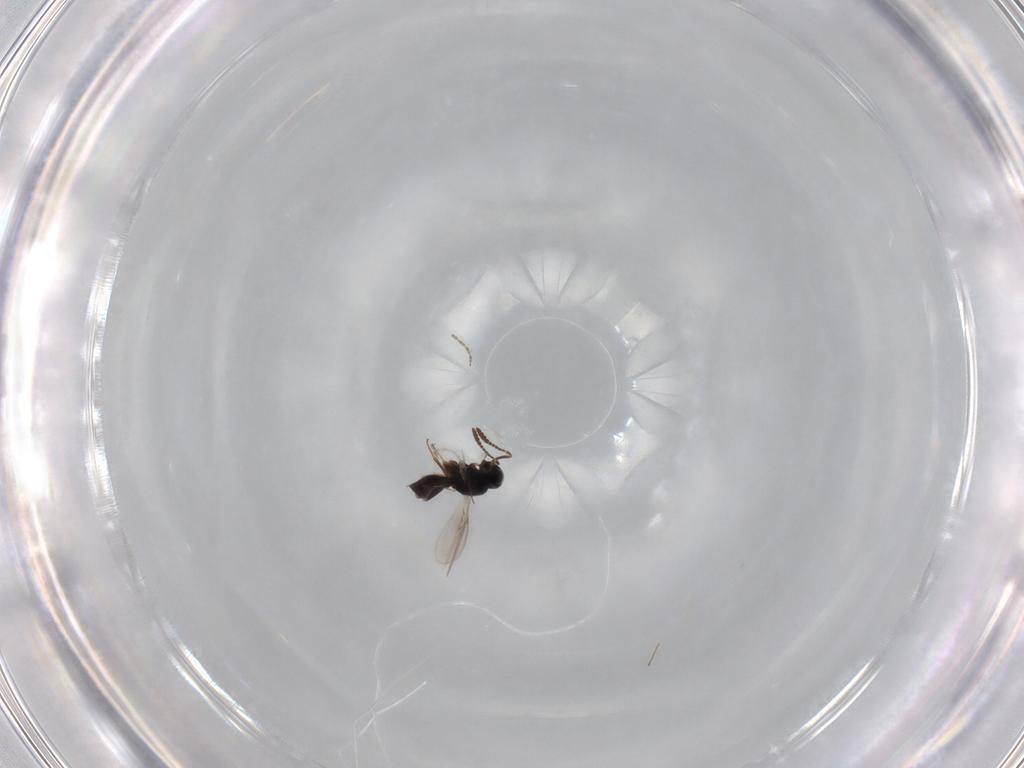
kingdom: Animalia
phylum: Arthropoda
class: Insecta
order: Hymenoptera
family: Scelionidae
